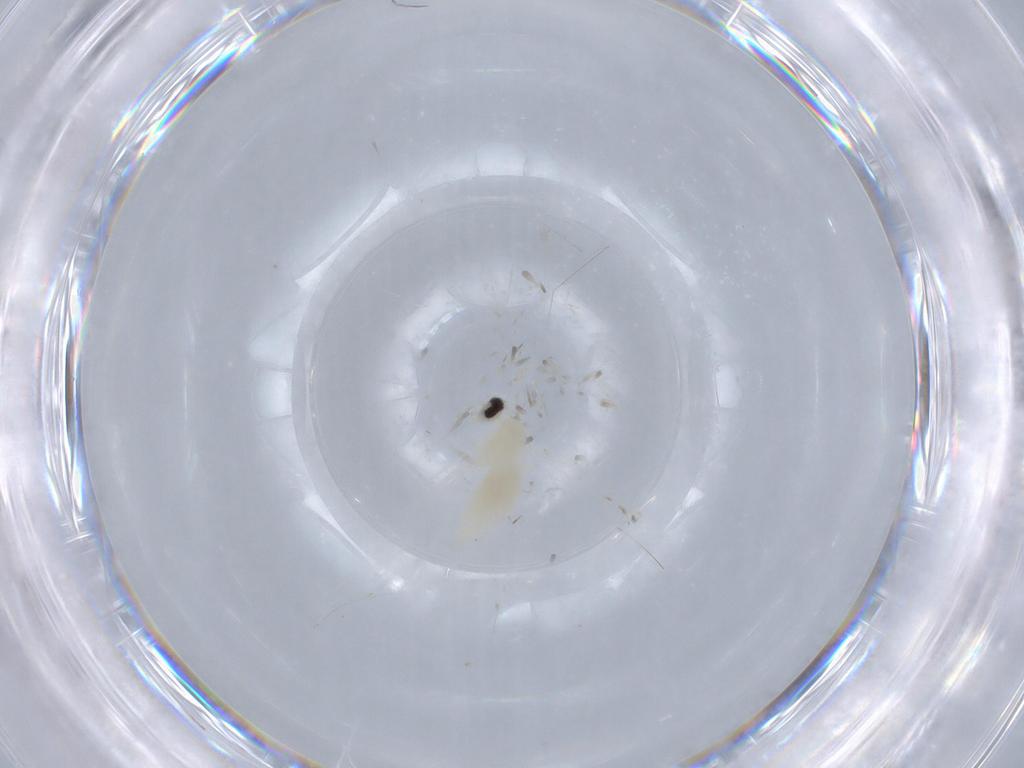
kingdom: Animalia
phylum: Arthropoda
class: Insecta
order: Diptera
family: Cecidomyiidae
